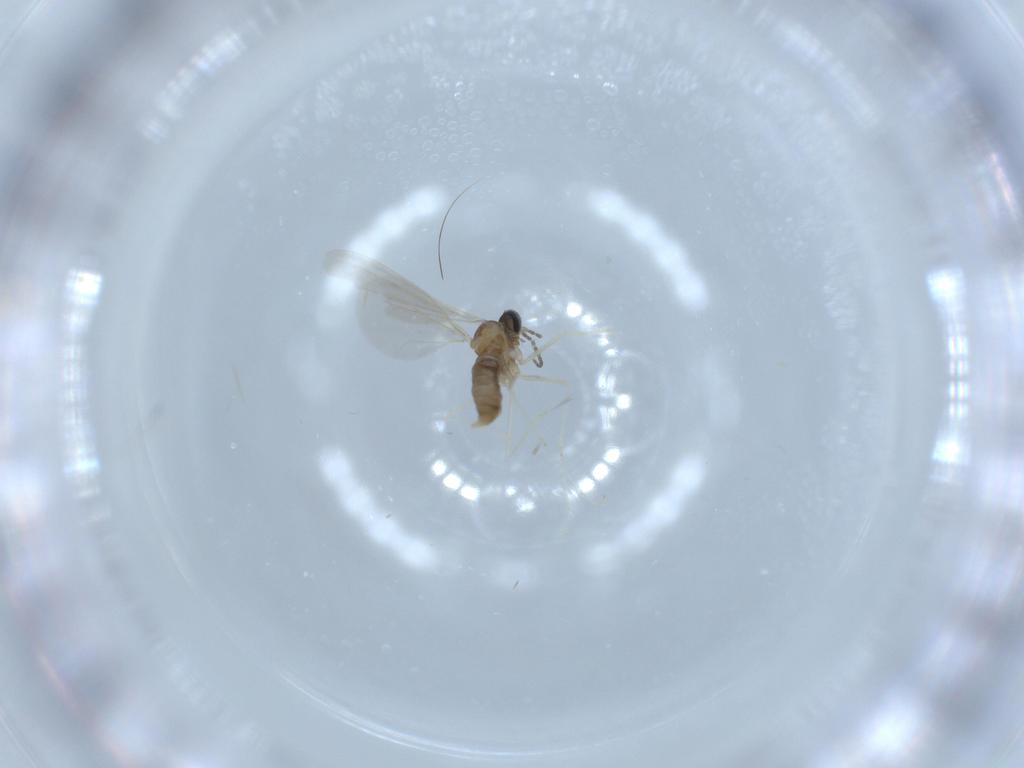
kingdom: Animalia
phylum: Arthropoda
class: Insecta
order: Diptera
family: Cecidomyiidae
